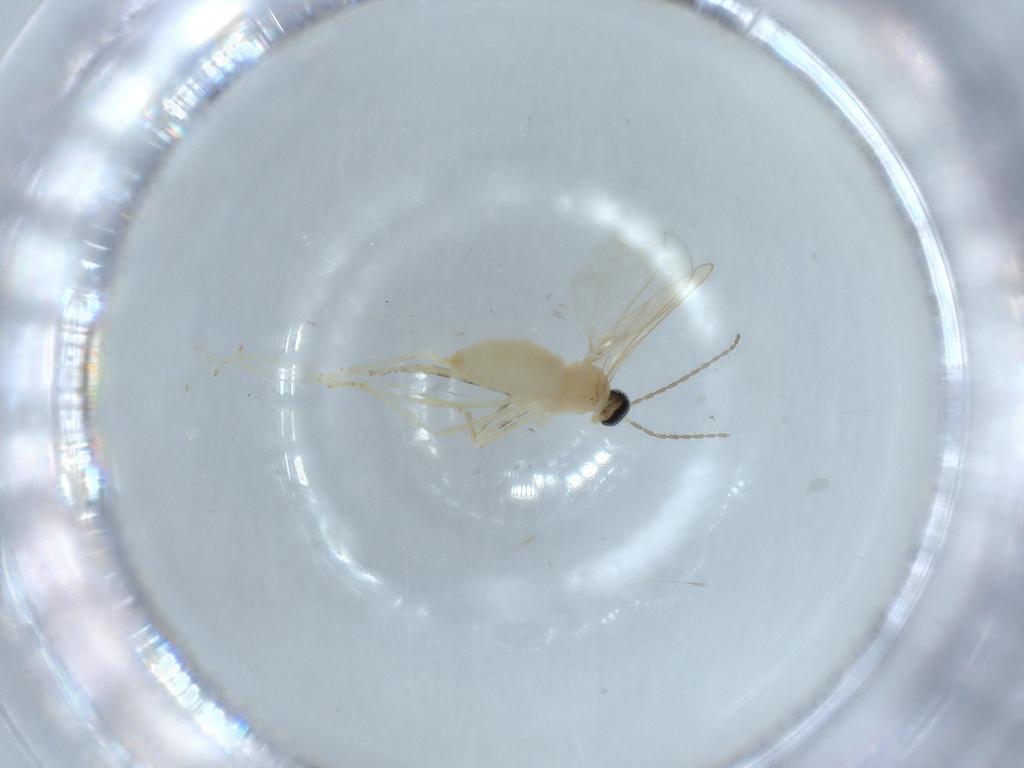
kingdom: Animalia
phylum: Arthropoda
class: Insecta
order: Diptera
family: Cecidomyiidae
